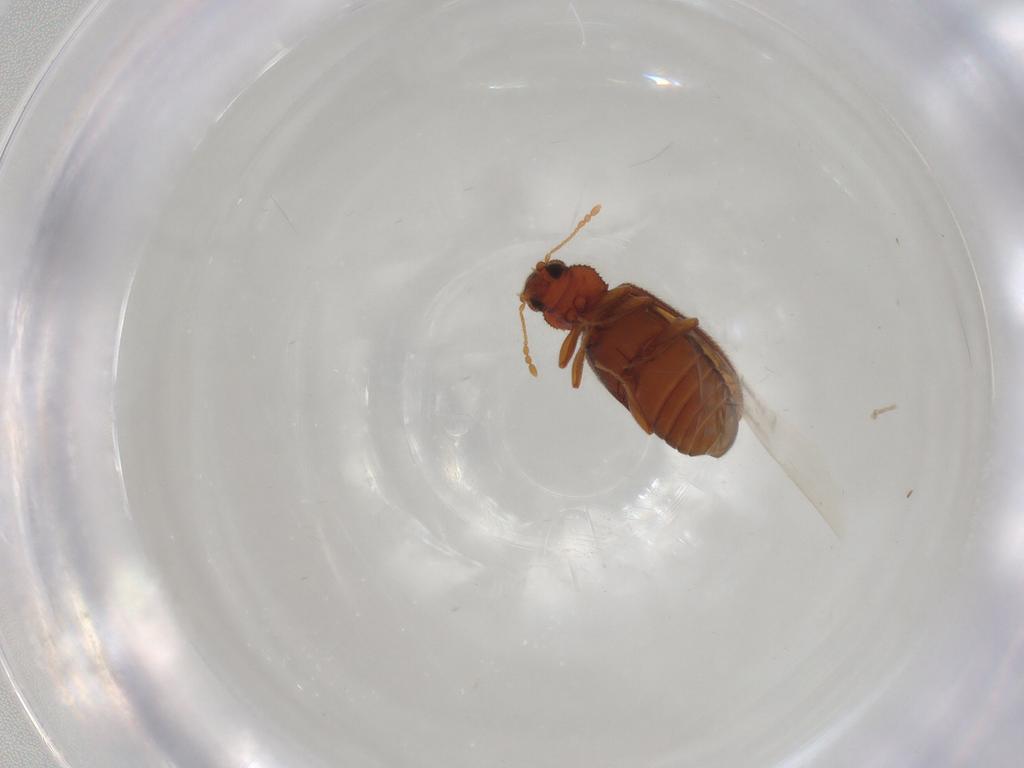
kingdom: Animalia
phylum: Arthropoda
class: Insecta
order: Coleoptera
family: Latridiidae
